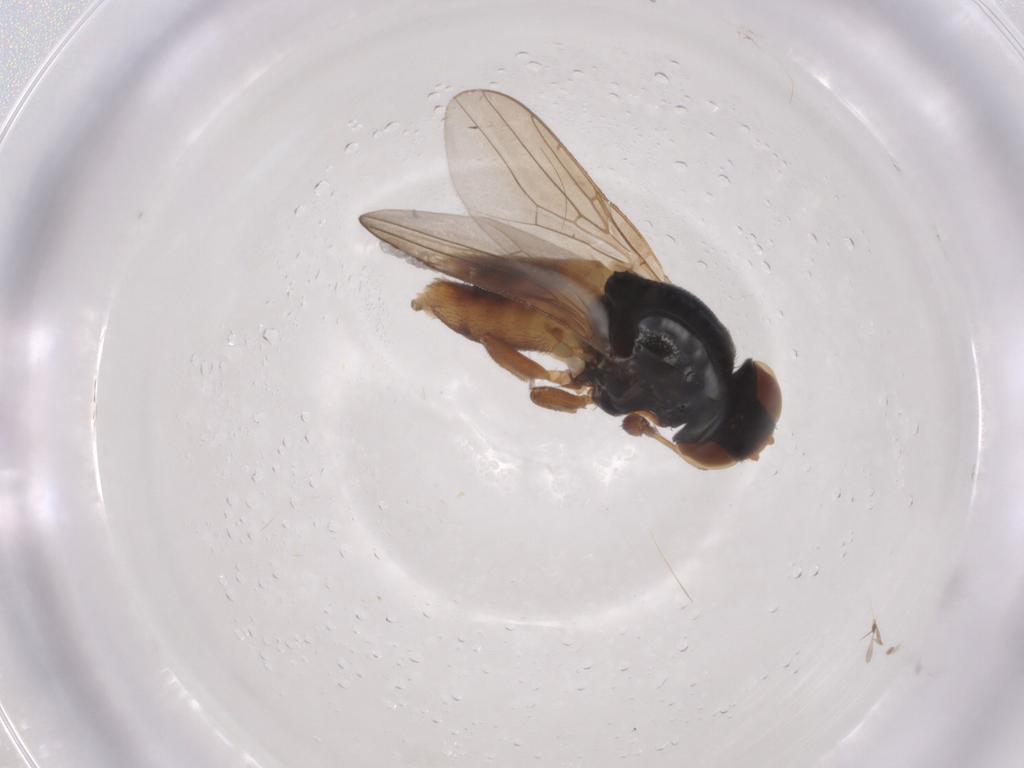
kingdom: Animalia
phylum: Arthropoda
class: Insecta
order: Diptera
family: Chloropidae
